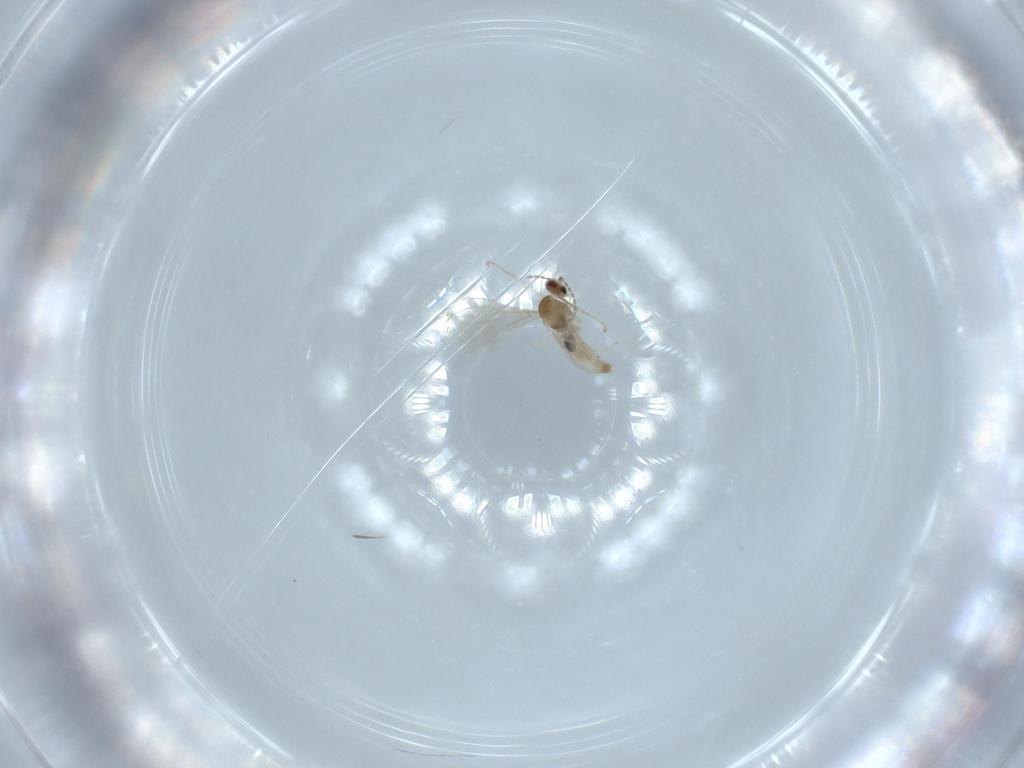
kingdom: Animalia
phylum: Arthropoda
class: Insecta
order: Diptera
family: Cecidomyiidae
